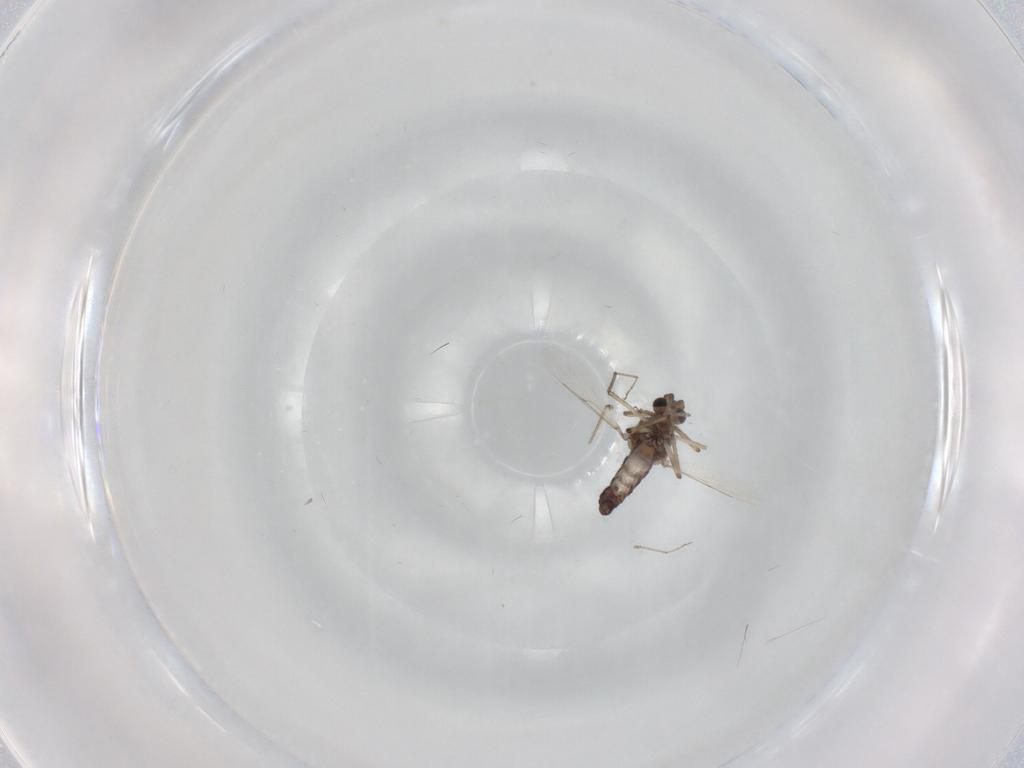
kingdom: Animalia
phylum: Arthropoda
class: Insecta
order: Diptera
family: Ceratopogonidae
